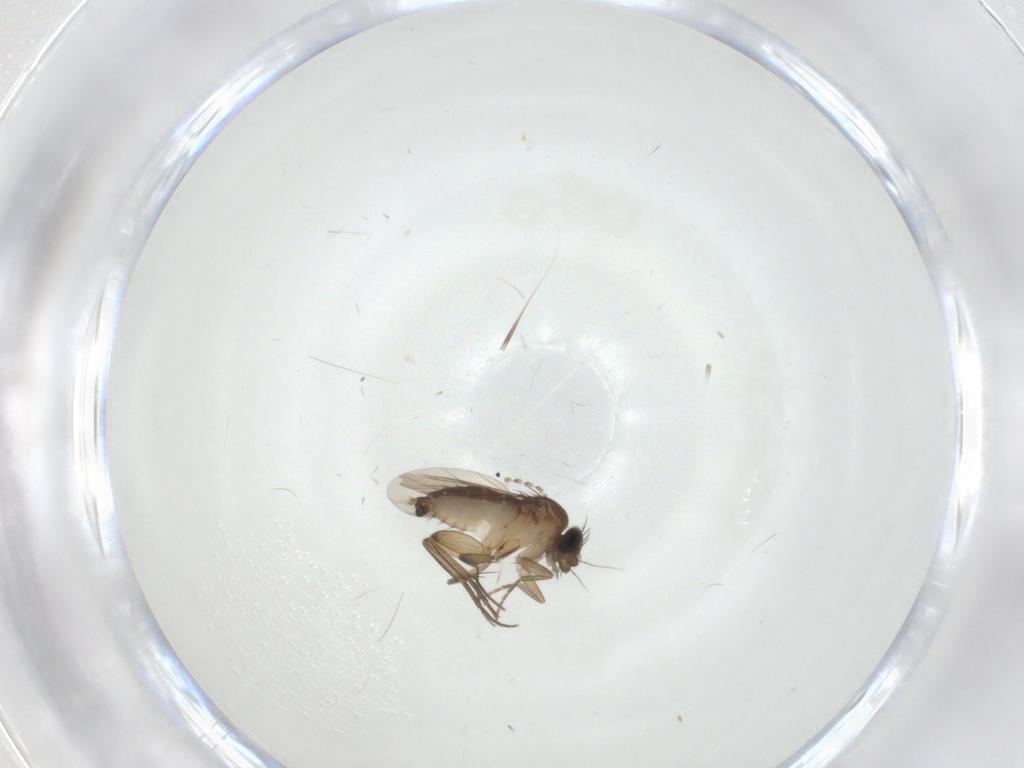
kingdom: Animalia
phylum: Arthropoda
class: Insecta
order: Diptera
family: Phoridae
